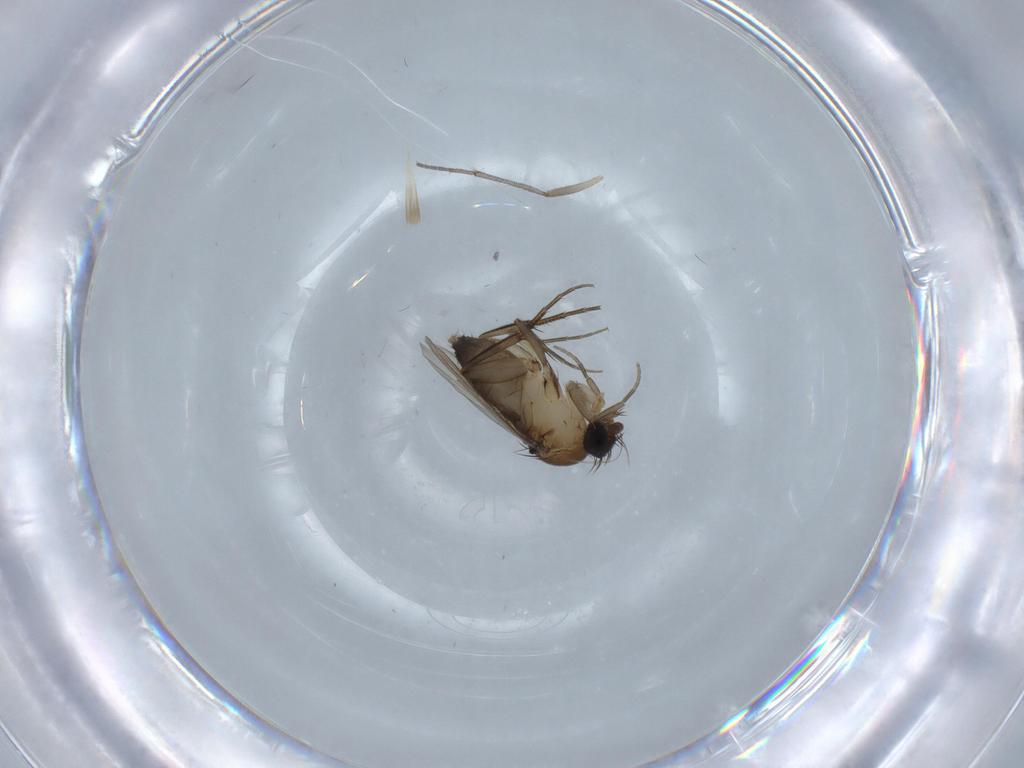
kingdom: Animalia
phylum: Arthropoda
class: Insecta
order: Diptera
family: Phoridae
